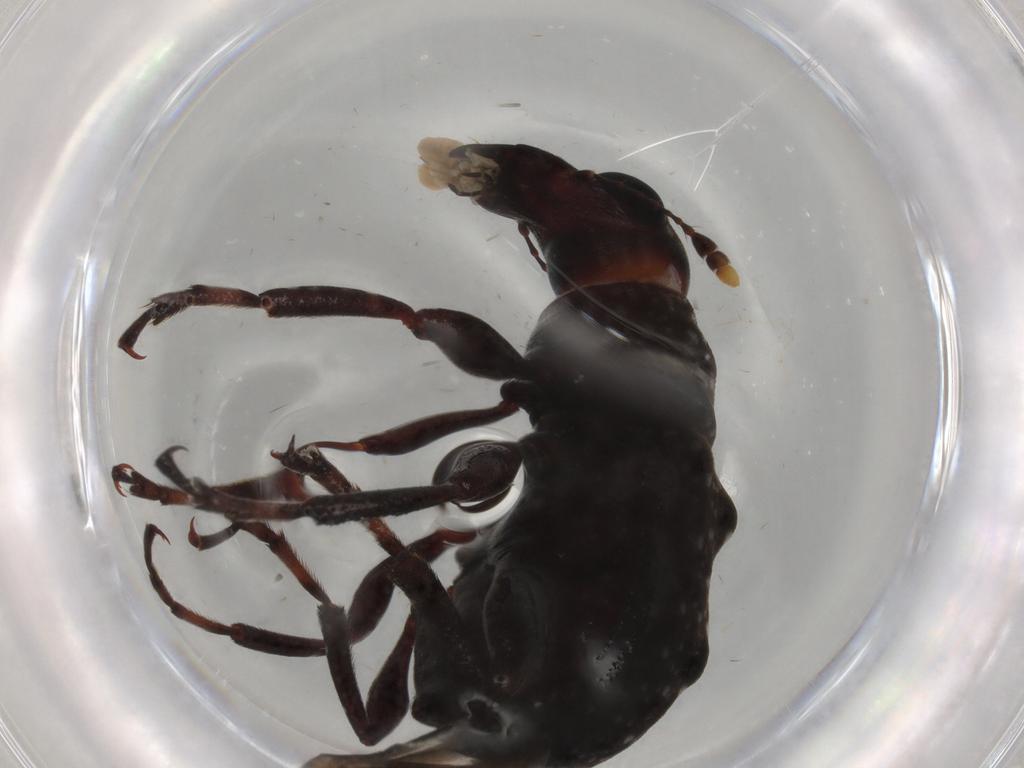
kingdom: Animalia
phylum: Arthropoda
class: Insecta
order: Coleoptera
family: Anthribidae
